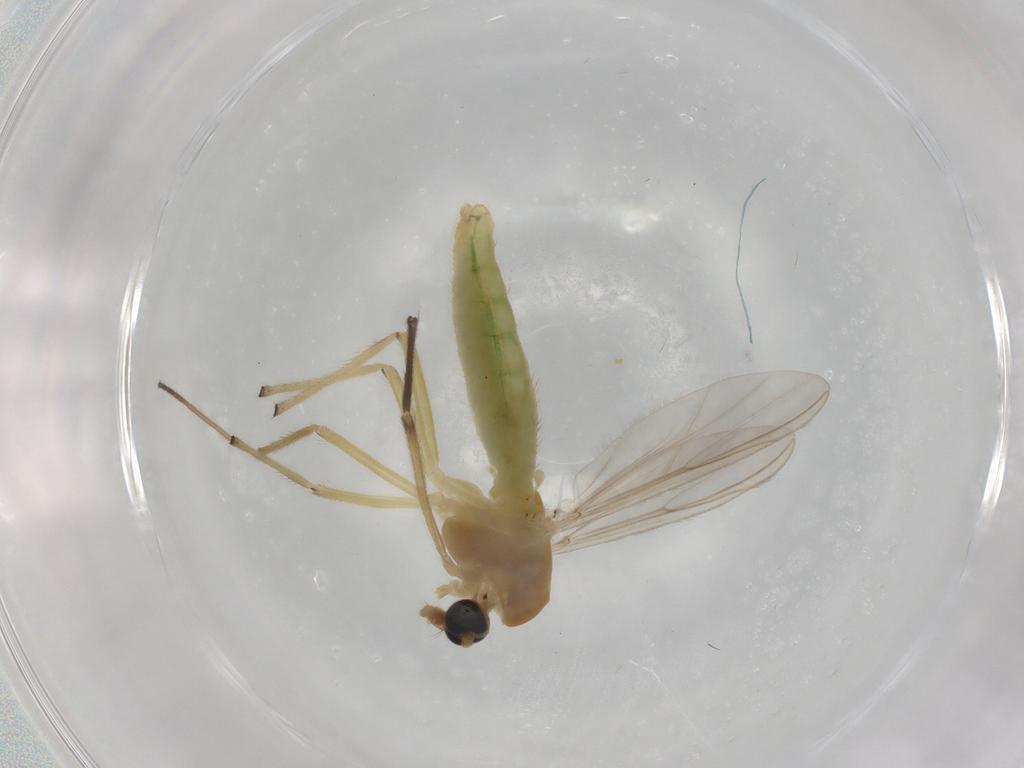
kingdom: Animalia
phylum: Arthropoda
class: Insecta
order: Diptera
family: Chironomidae
